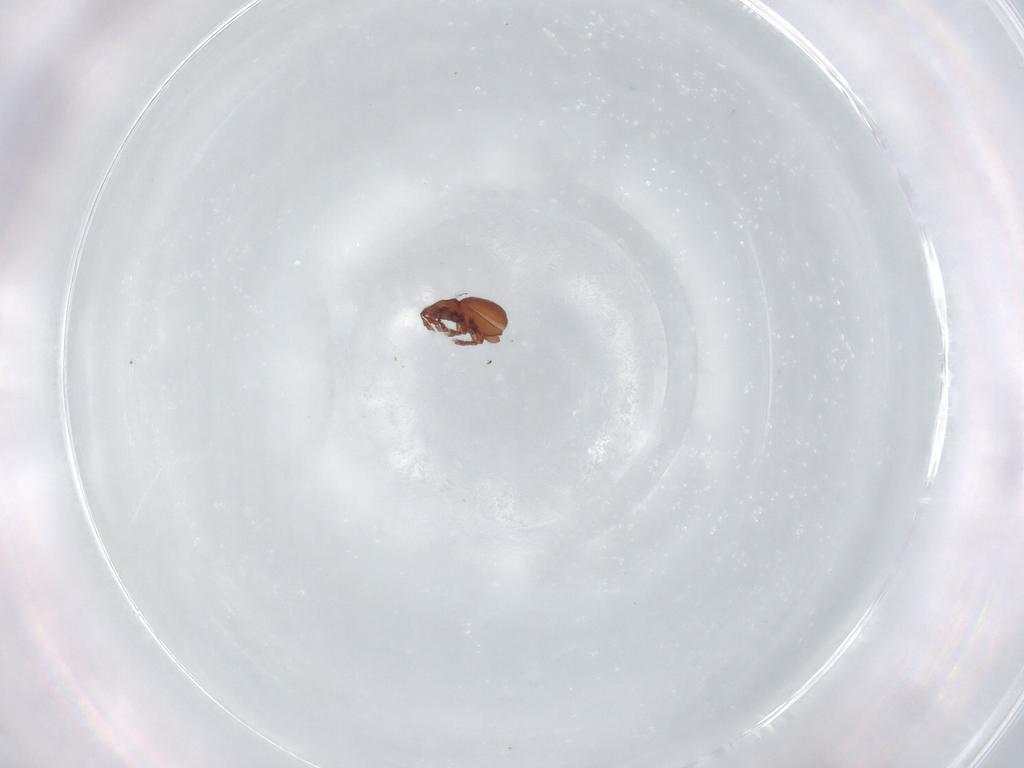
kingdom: Animalia
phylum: Arthropoda
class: Arachnida
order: Sarcoptiformes
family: Eremaeidae
